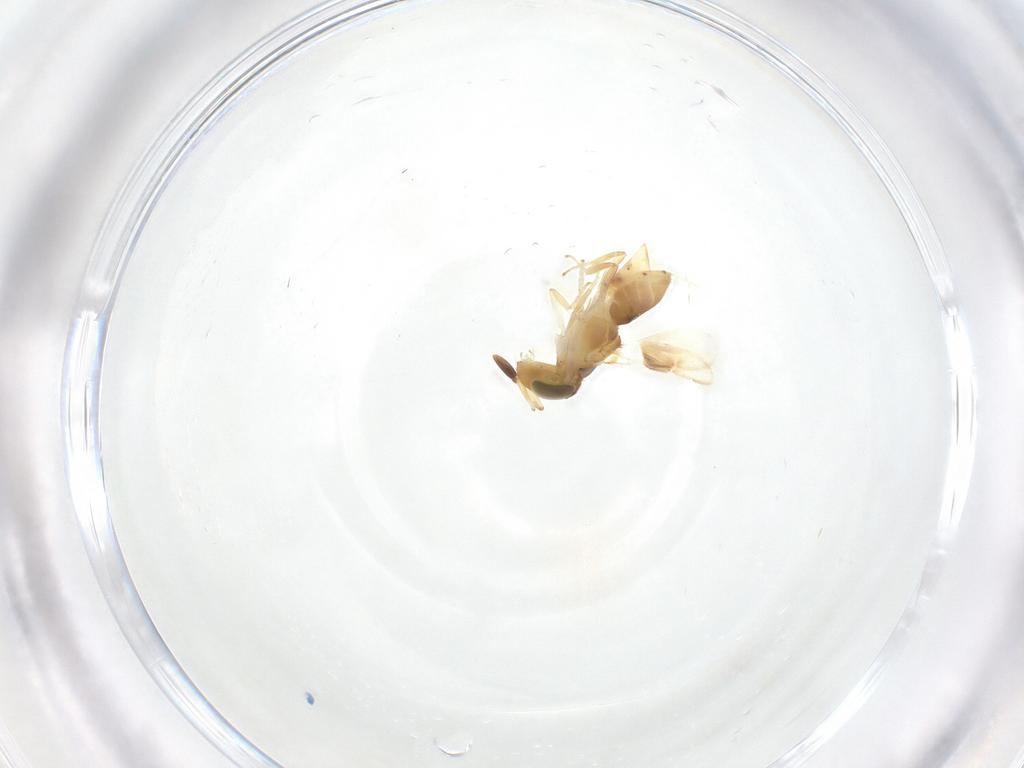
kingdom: Animalia
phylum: Arthropoda
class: Insecta
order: Hymenoptera
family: Encyrtidae
